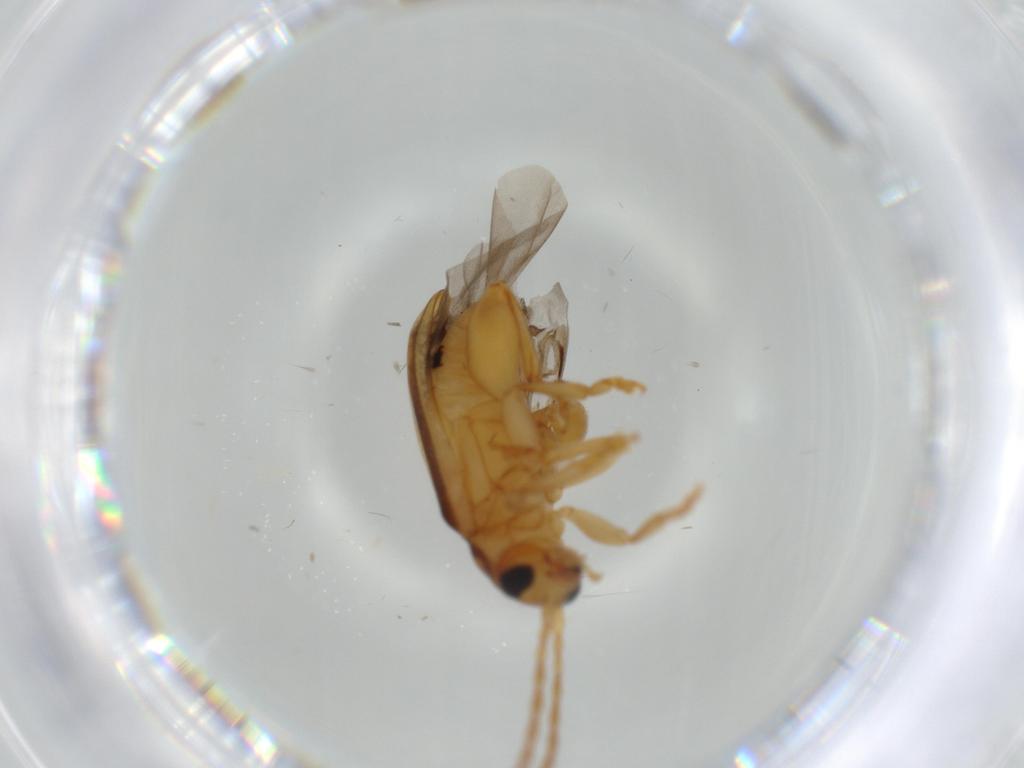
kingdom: Animalia
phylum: Arthropoda
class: Insecta
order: Coleoptera
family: Chrysomelidae
